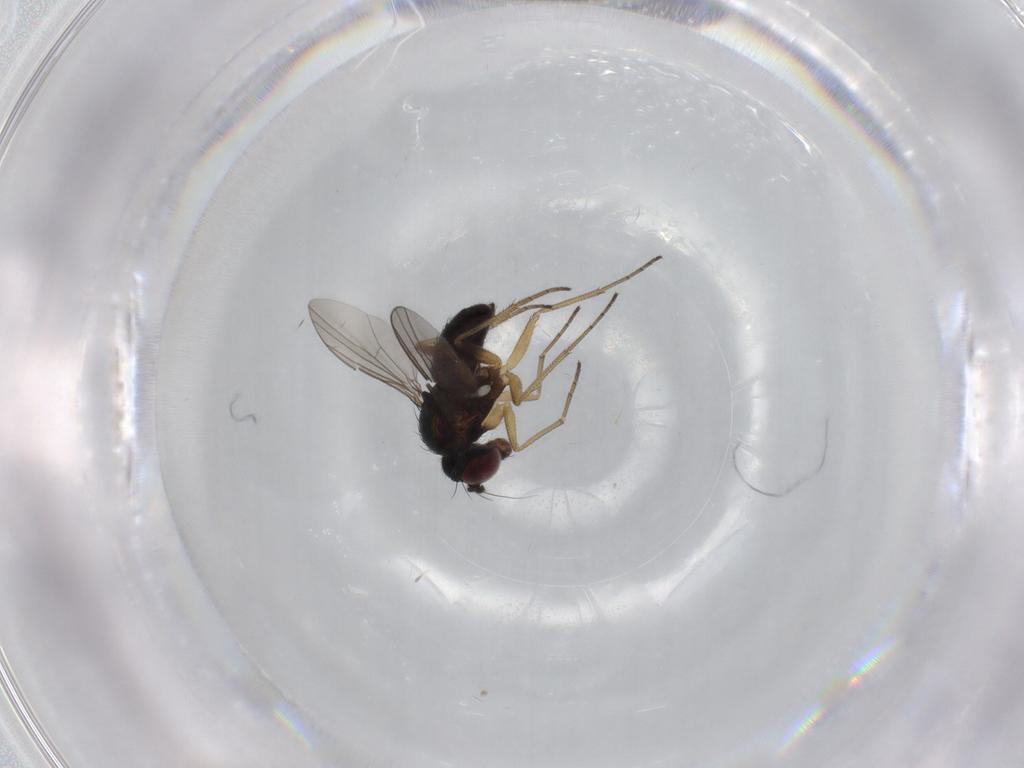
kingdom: Animalia
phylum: Arthropoda
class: Insecta
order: Diptera
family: Dolichopodidae
